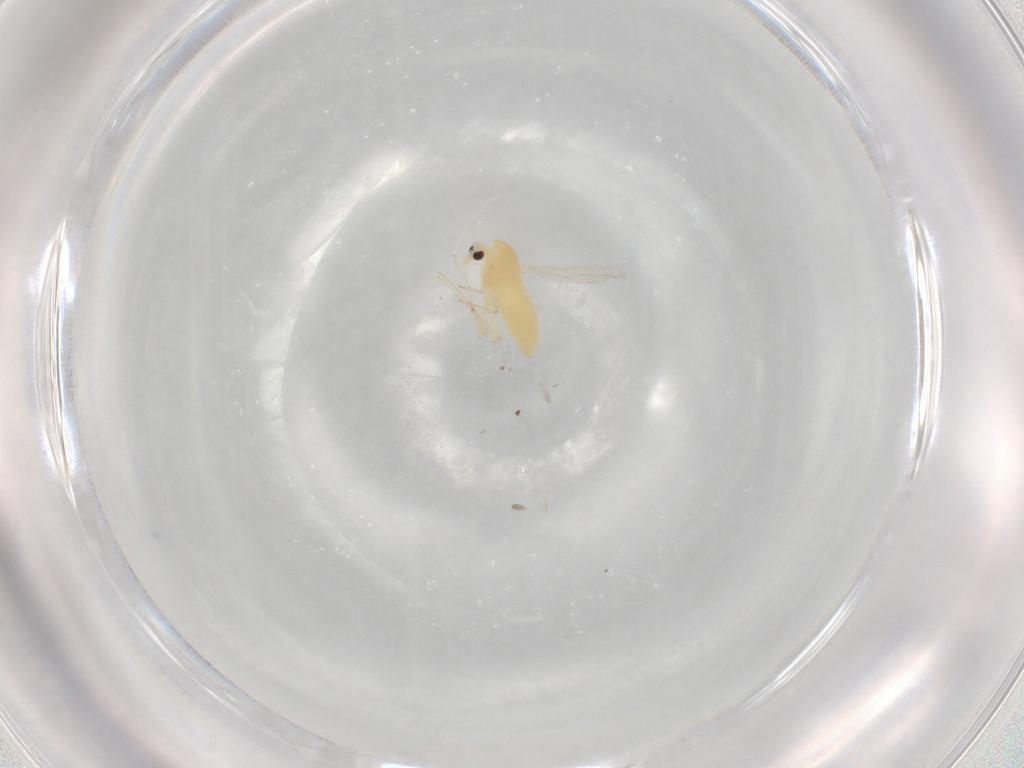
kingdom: Animalia
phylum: Arthropoda
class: Insecta
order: Diptera
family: Chironomidae
